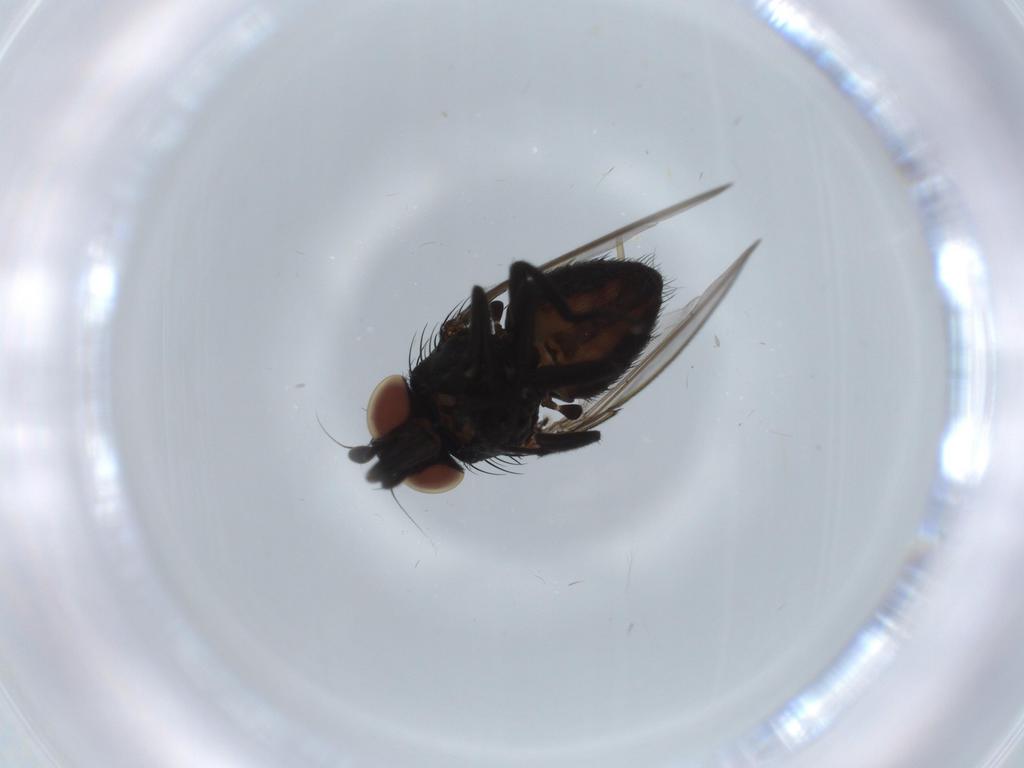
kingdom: Animalia
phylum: Arthropoda
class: Insecta
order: Diptera
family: Milichiidae
